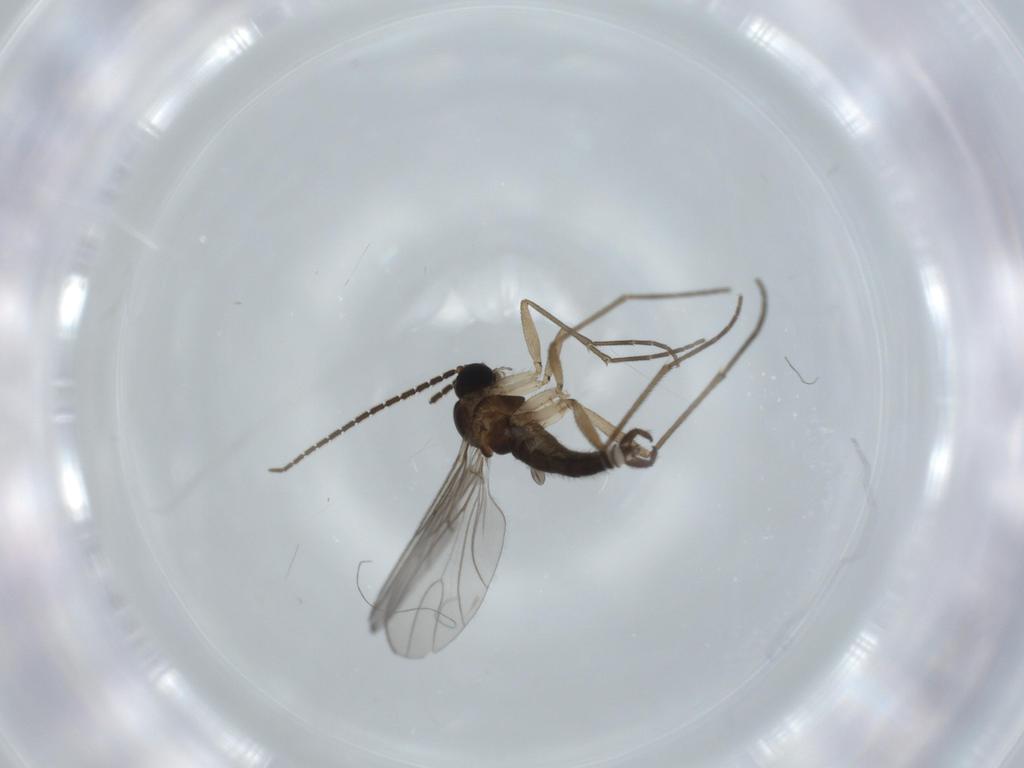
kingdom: Animalia
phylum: Arthropoda
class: Insecta
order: Diptera
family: Sciaridae
